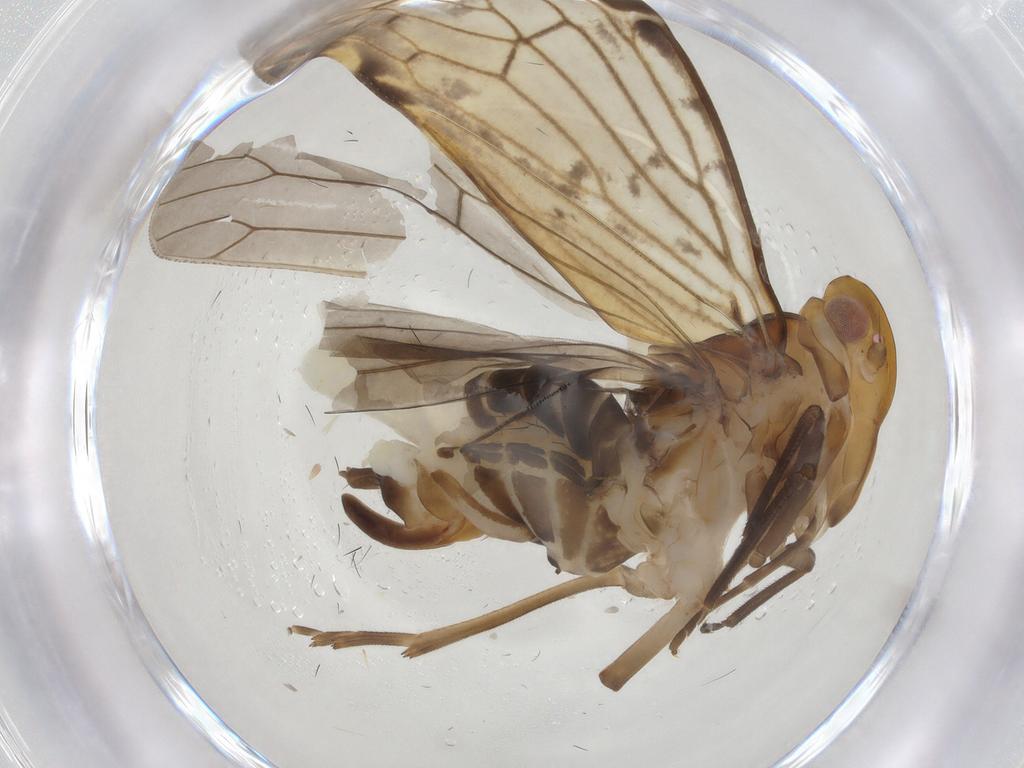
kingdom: Animalia
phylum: Arthropoda
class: Insecta
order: Hemiptera
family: Cixiidae
